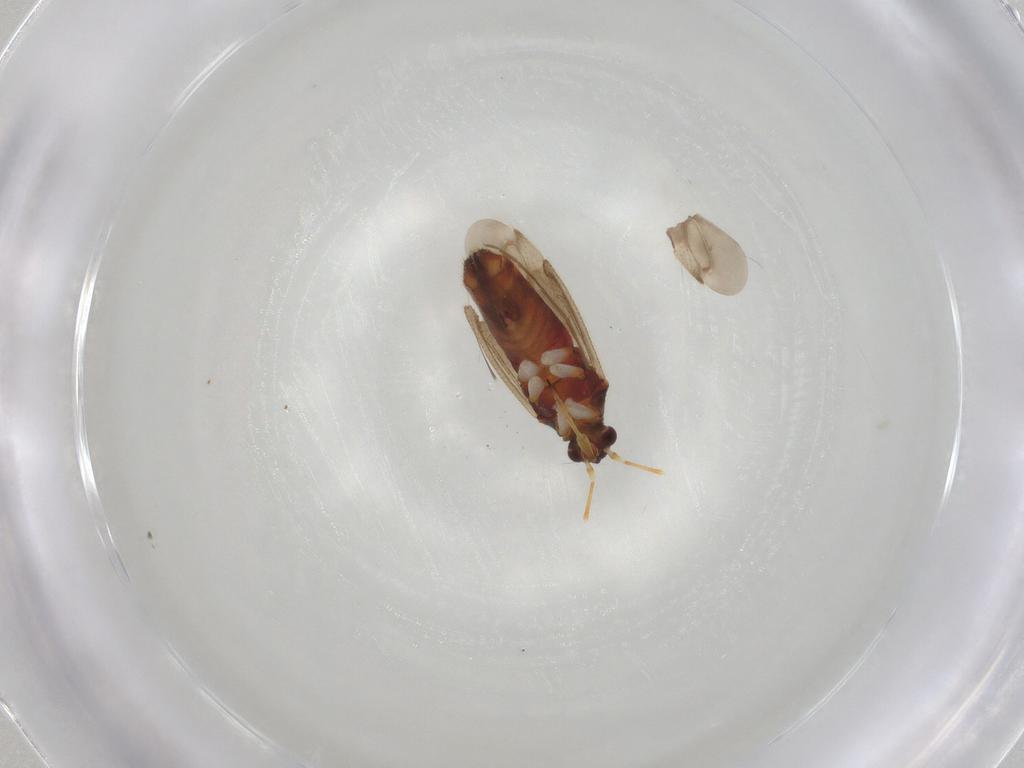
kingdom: Animalia
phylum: Arthropoda
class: Insecta
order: Hemiptera
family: Miridae
